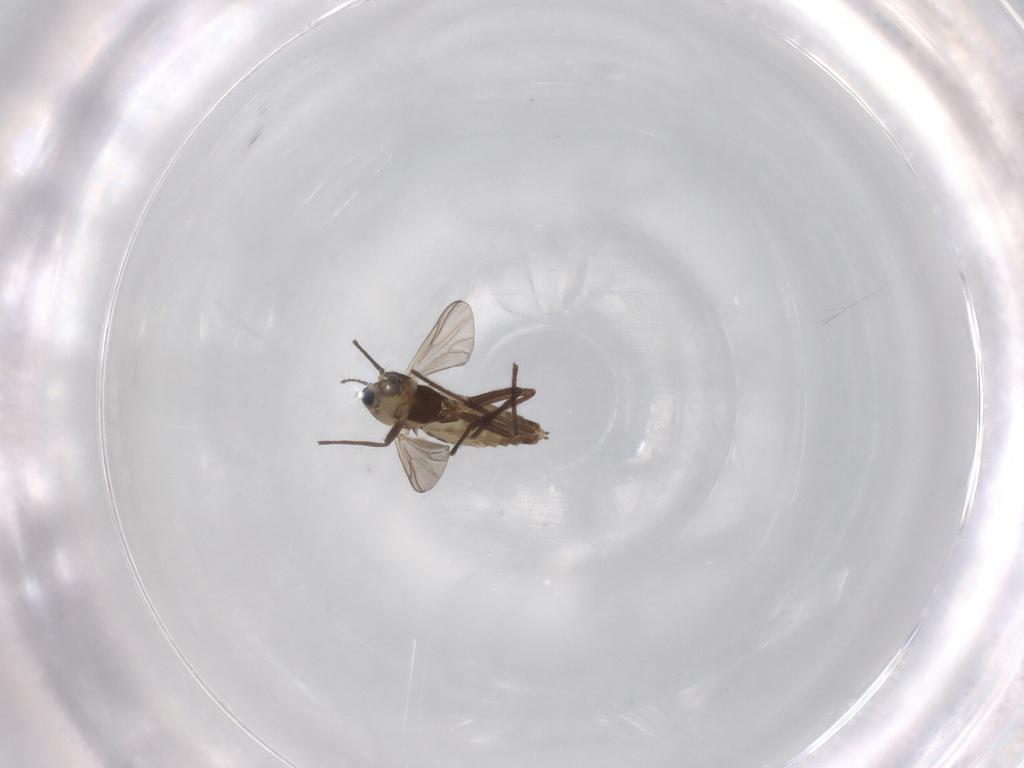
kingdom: Animalia
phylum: Arthropoda
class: Insecta
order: Diptera
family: Chironomidae
